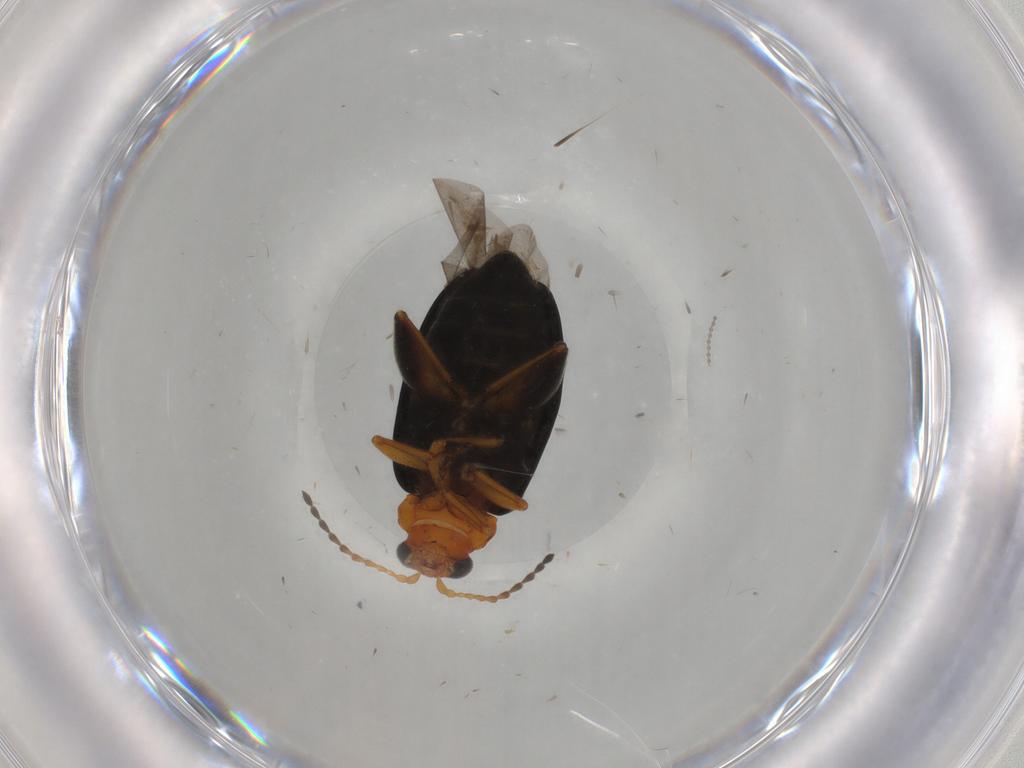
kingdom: Animalia
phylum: Arthropoda
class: Insecta
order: Coleoptera
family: Chrysomelidae
